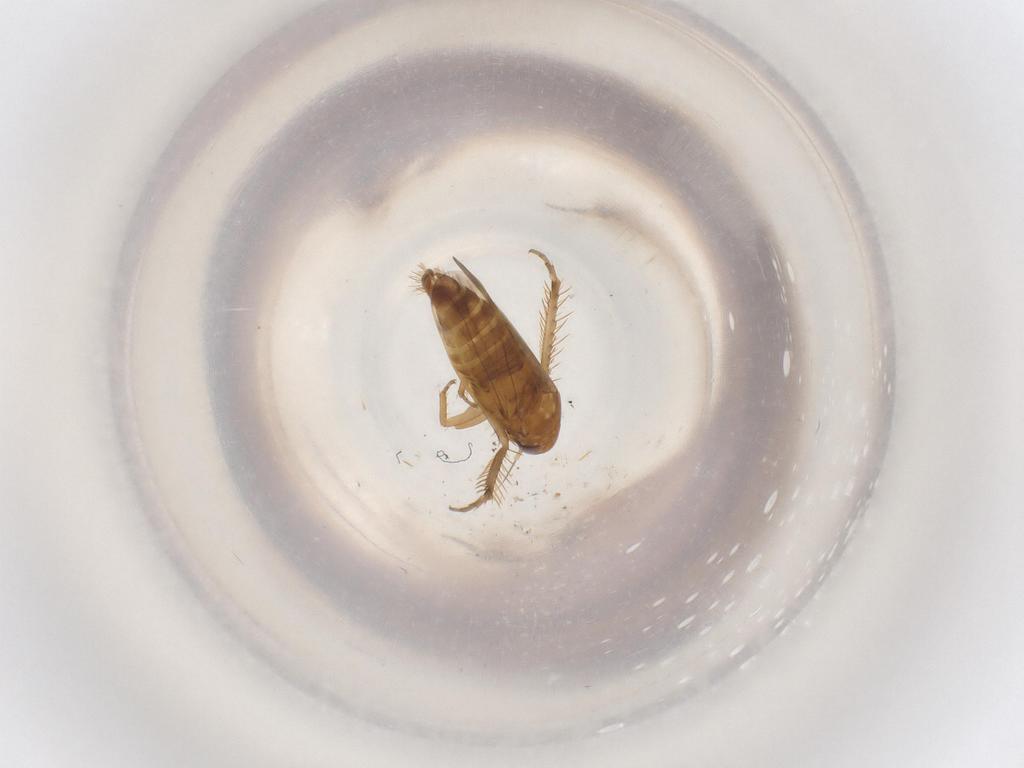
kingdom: Animalia
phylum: Arthropoda
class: Insecta
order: Hemiptera
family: Cicadellidae
